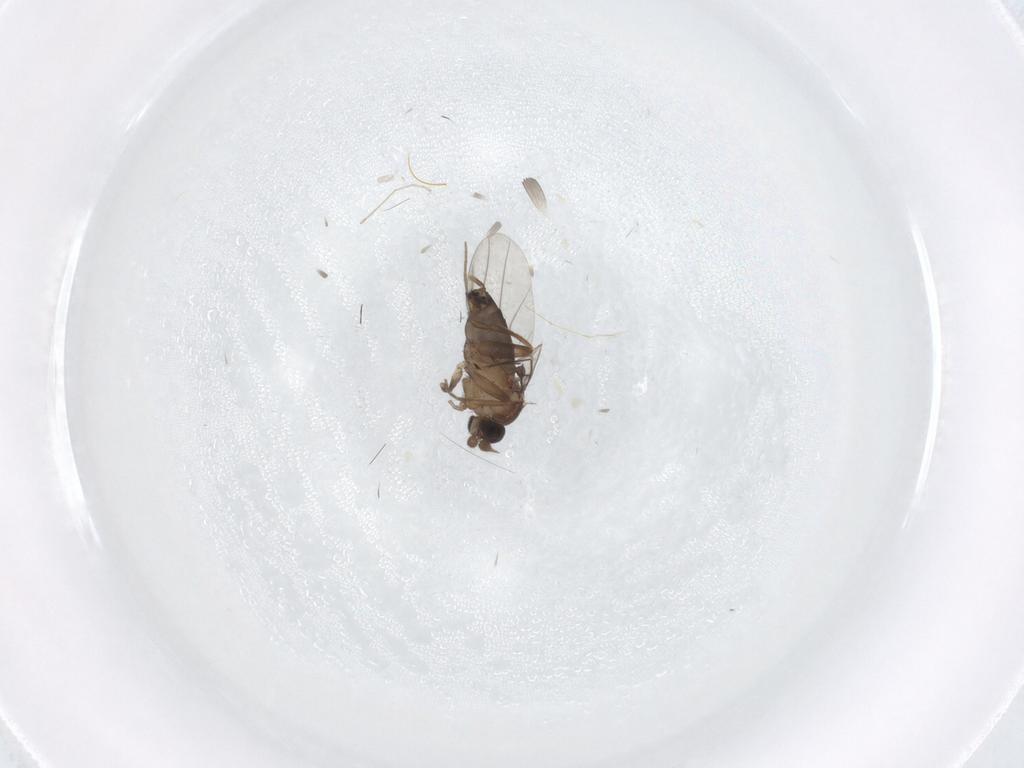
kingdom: Animalia
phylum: Arthropoda
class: Insecta
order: Diptera
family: Phoridae
